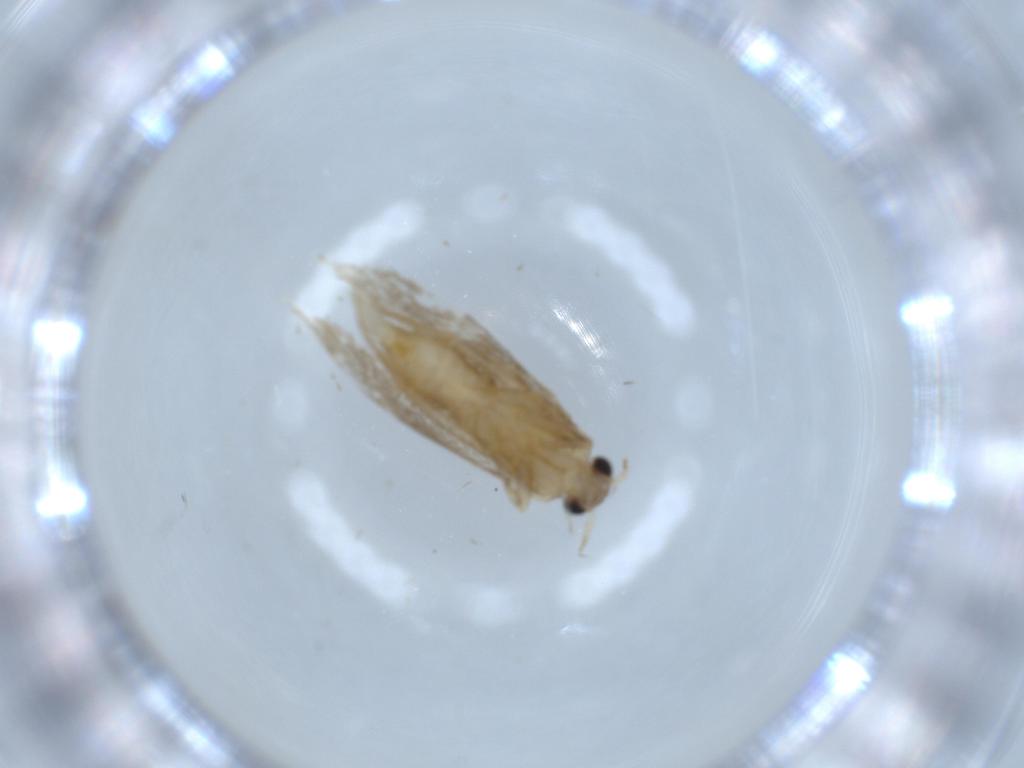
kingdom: Animalia
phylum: Arthropoda
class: Insecta
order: Lepidoptera
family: Tineidae
